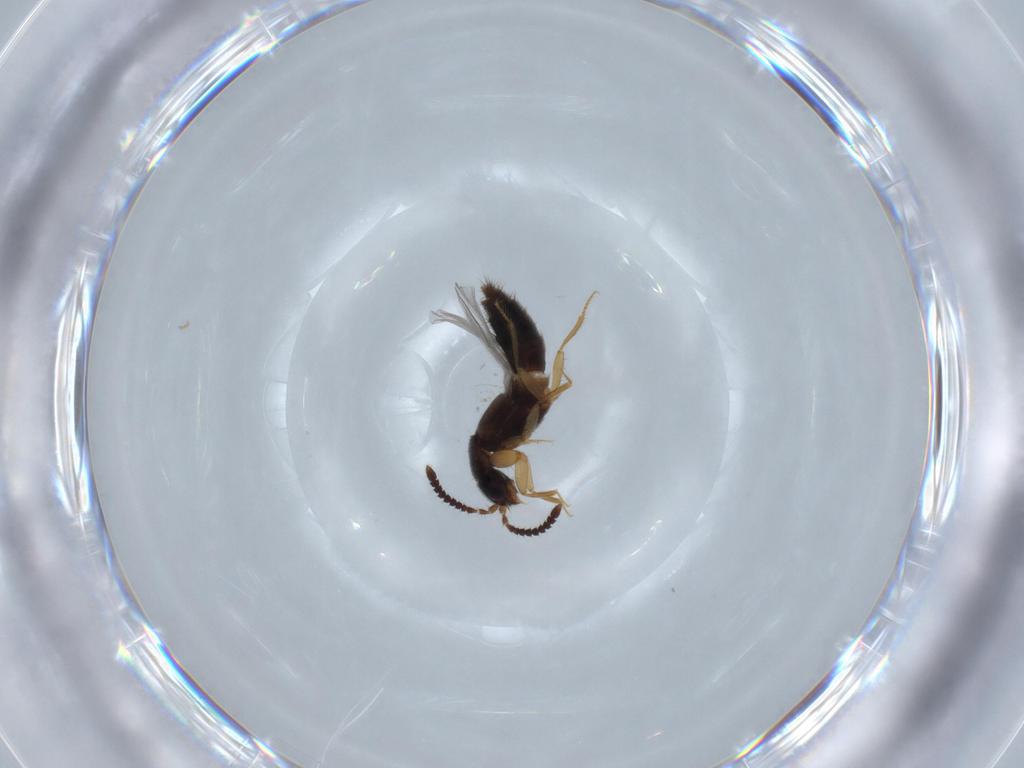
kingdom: Animalia
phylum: Arthropoda
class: Insecta
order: Coleoptera
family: Staphylinidae
